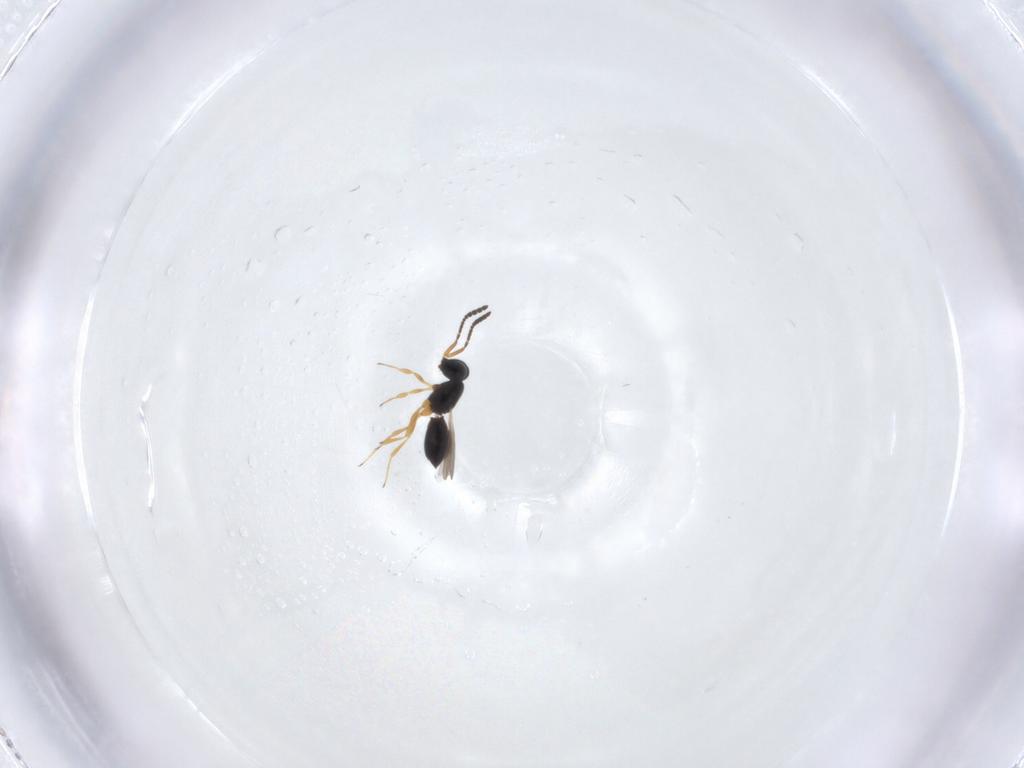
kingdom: Animalia
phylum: Arthropoda
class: Insecta
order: Hymenoptera
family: Scelionidae
